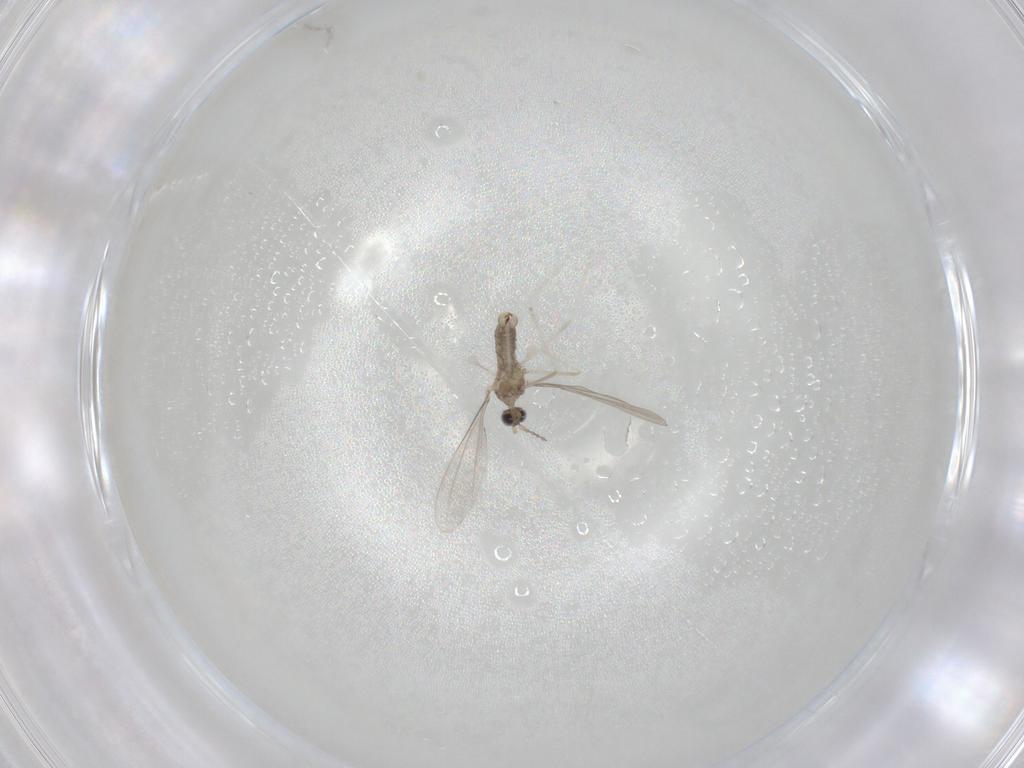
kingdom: Animalia
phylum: Arthropoda
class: Insecta
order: Diptera
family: Cecidomyiidae
